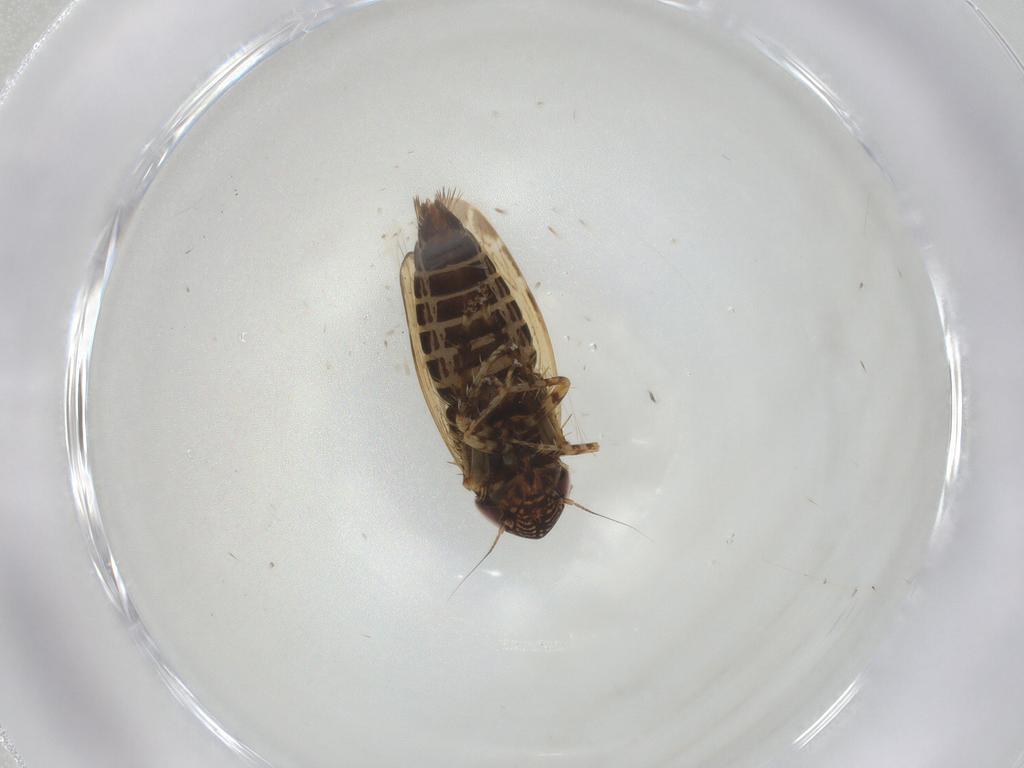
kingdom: Animalia
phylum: Arthropoda
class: Insecta
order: Hemiptera
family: Cicadellidae
